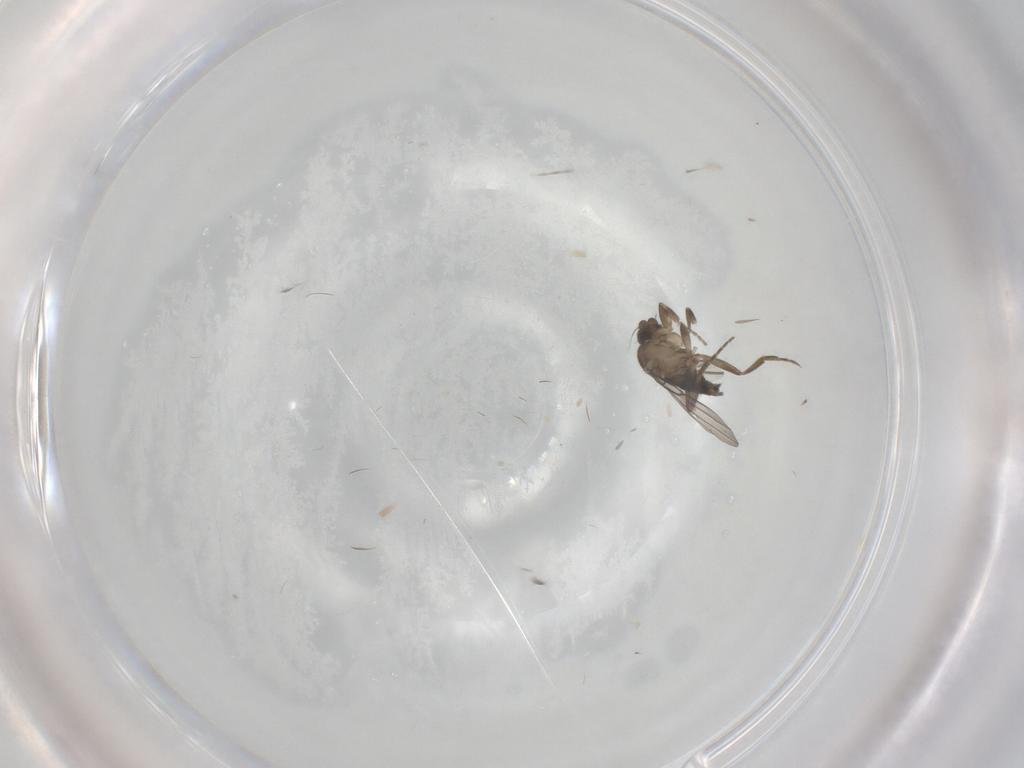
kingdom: Animalia
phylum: Arthropoda
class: Insecta
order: Diptera
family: Phoridae
